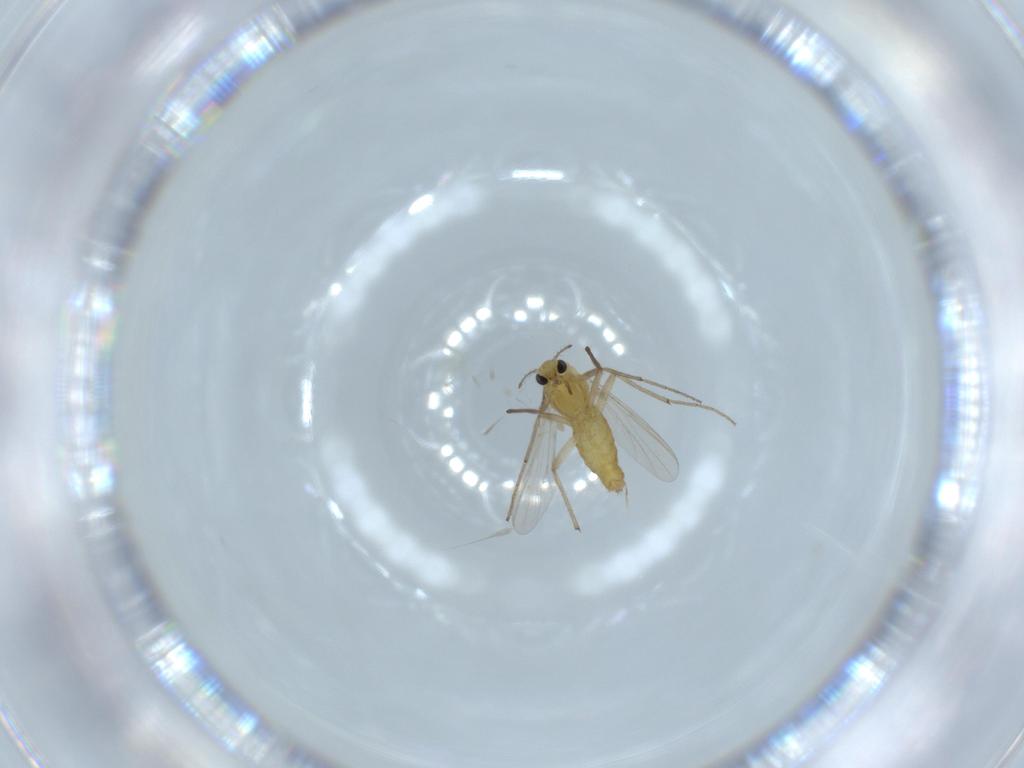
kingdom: Animalia
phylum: Arthropoda
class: Insecta
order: Diptera
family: Chironomidae
